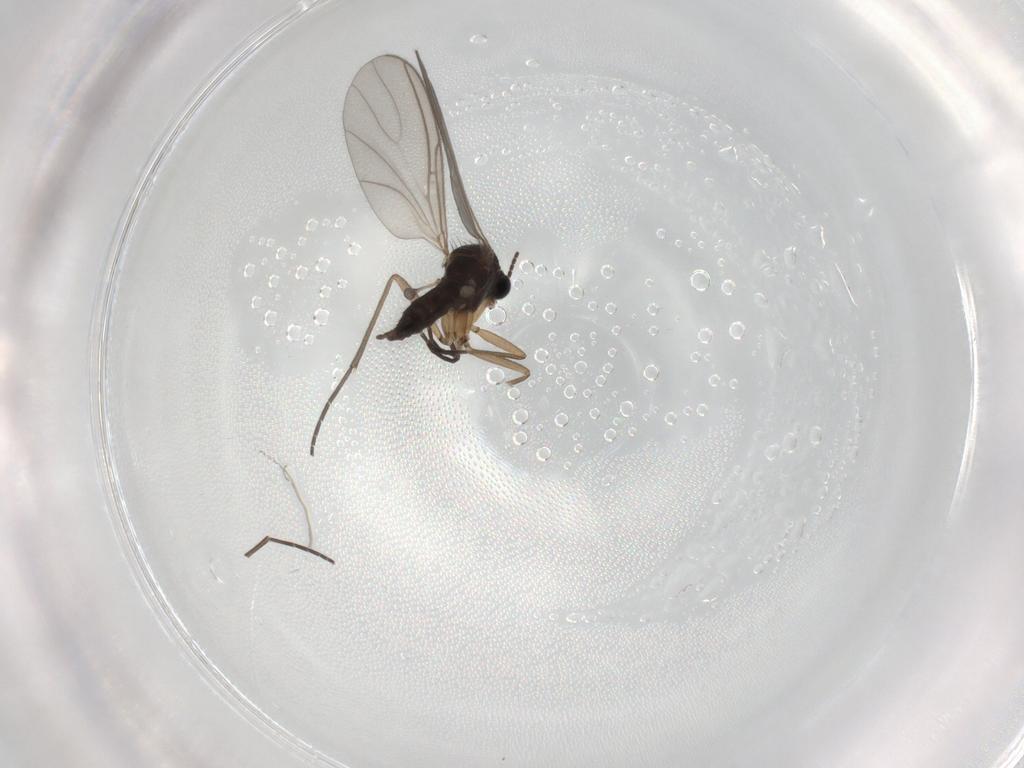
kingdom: Animalia
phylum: Arthropoda
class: Insecta
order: Diptera
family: Sciaridae
